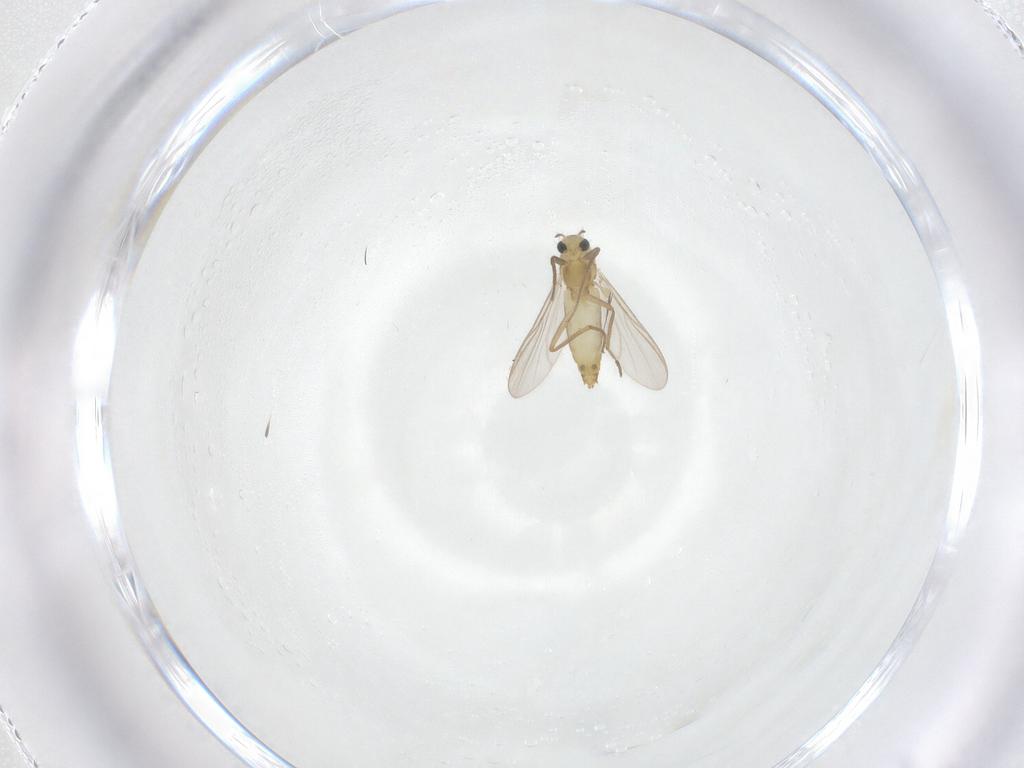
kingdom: Animalia
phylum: Arthropoda
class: Insecta
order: Diptera
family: Chironomidae
